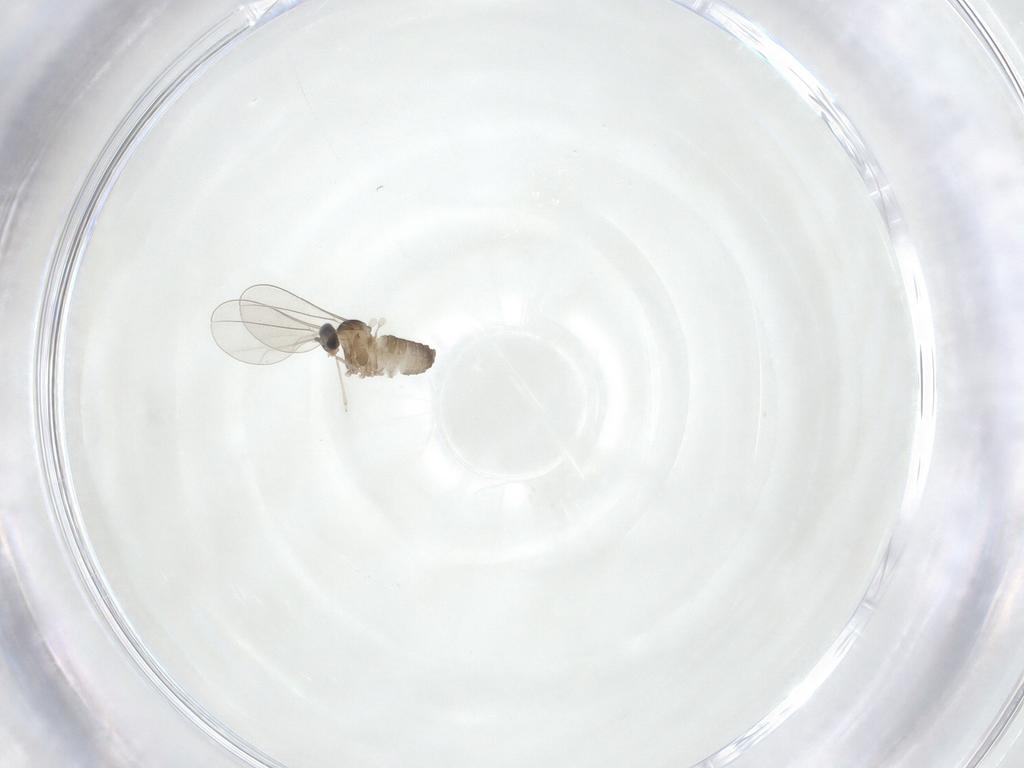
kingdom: Animalia
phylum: Arthropoda
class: Insecta
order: Diptera
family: Cecidomyiidae
